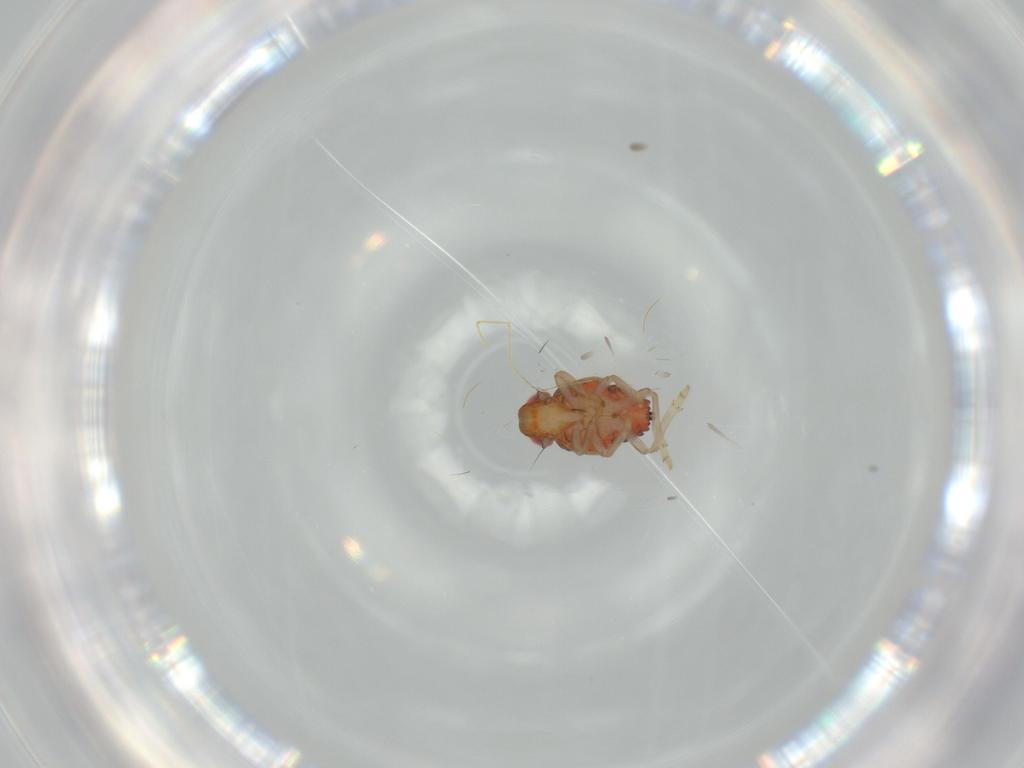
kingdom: Animalia
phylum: Arthropoda
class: Insecta
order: Hemiptera
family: Issidae
